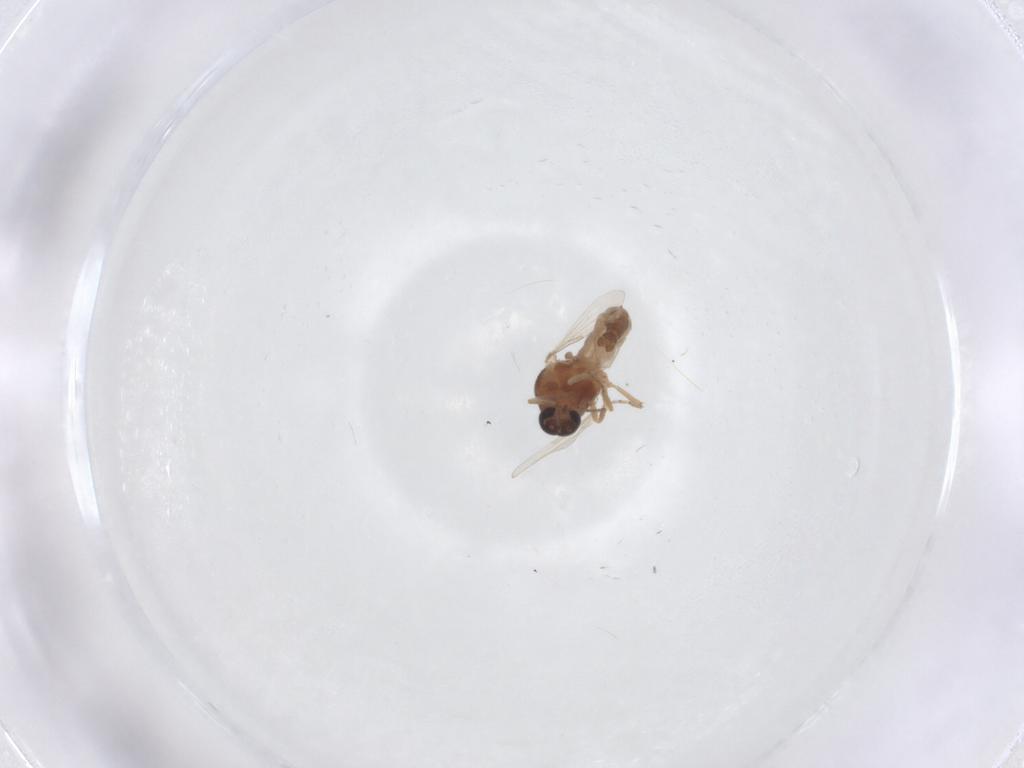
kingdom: Animalia
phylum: Arthropoda
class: Insecta
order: Diptera
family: Ceratopogonidae
